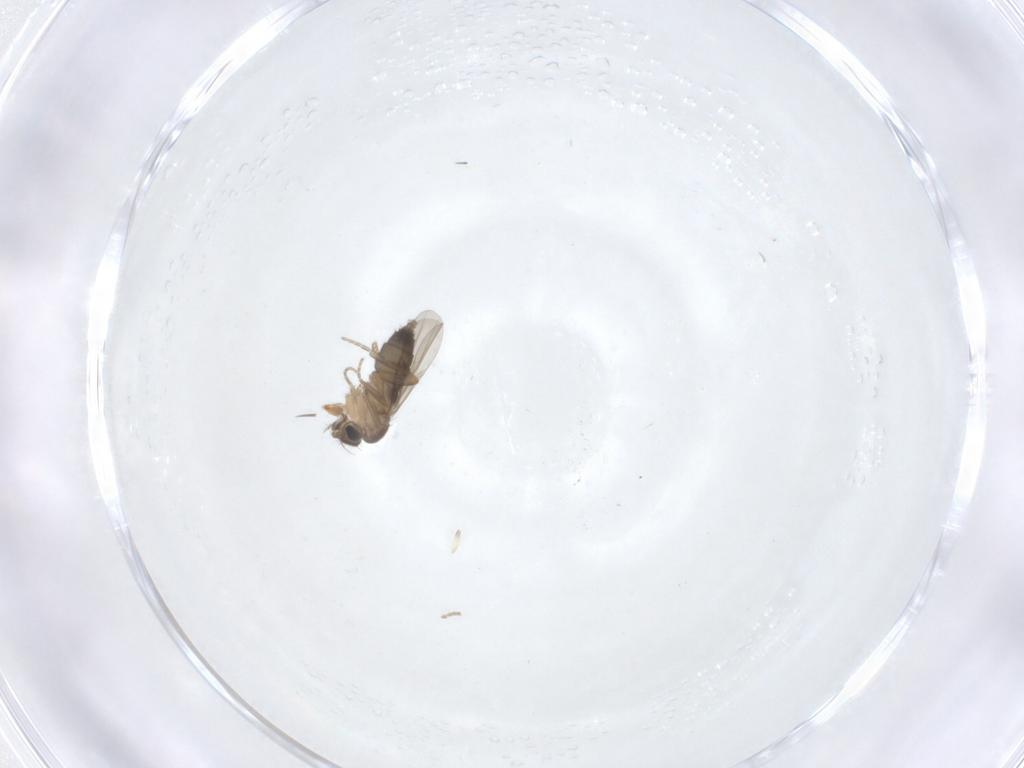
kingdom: Animalia
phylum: Arthropoda
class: Insecta
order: Diptera
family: Phoridae
